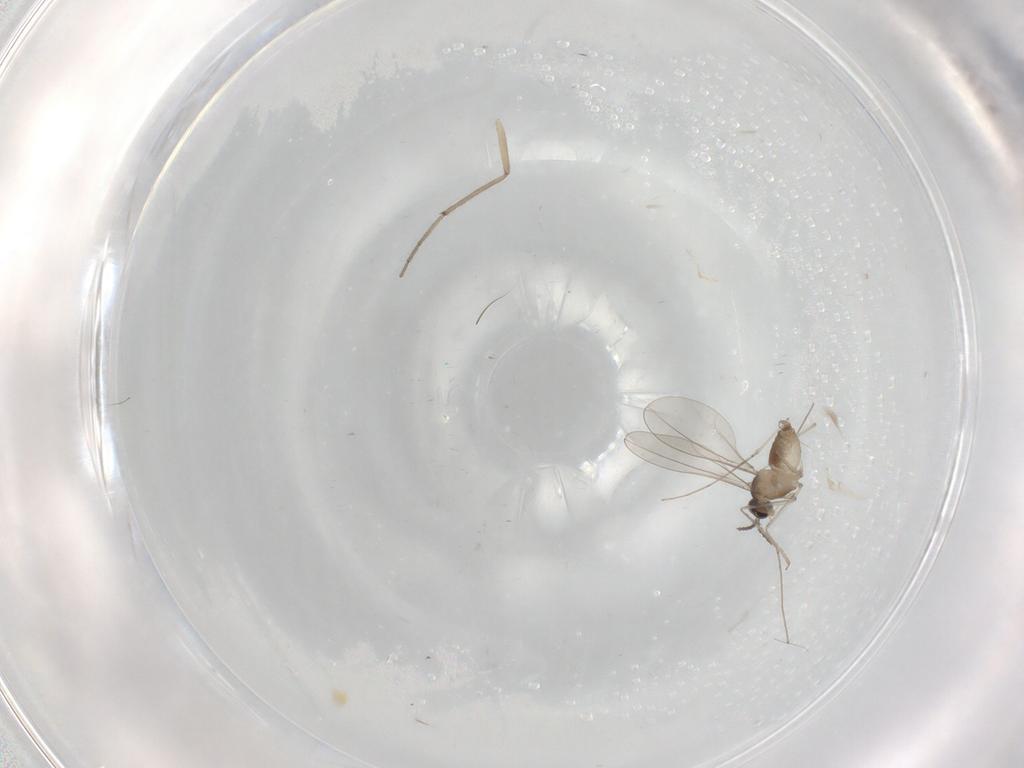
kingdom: Animalia
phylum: Arthropoda
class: Insecta
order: Diptera
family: Cecidomyiidae
